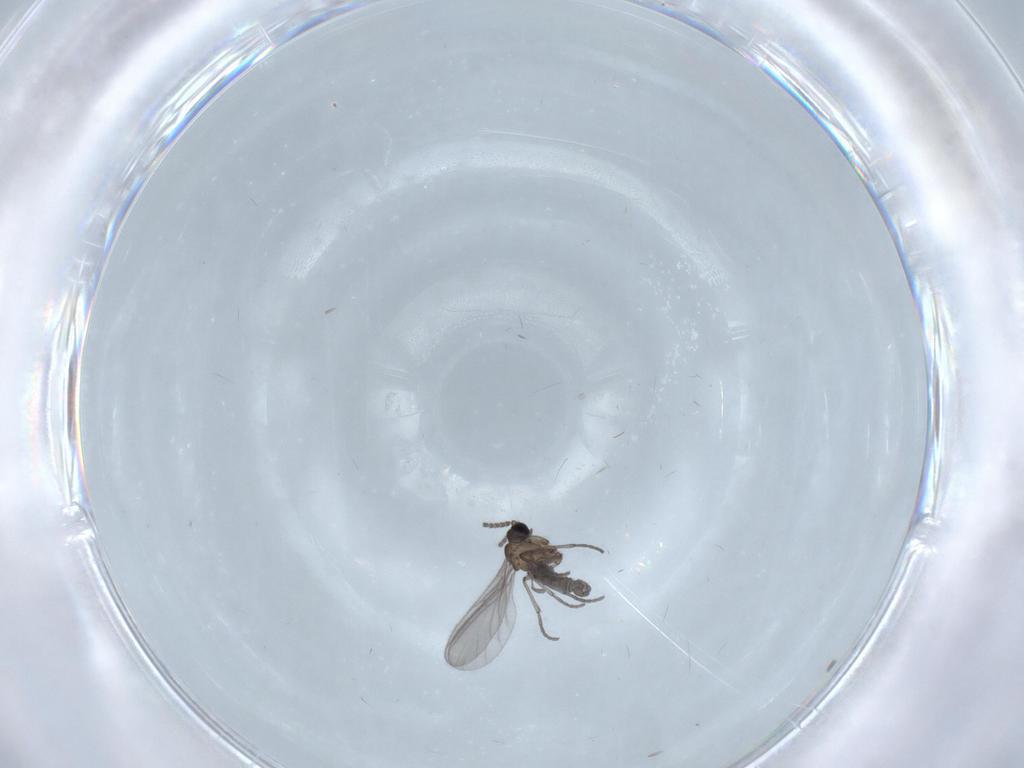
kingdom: Animalia
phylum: Arthropoda
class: Insecta
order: Diptera
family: Sciaridae
